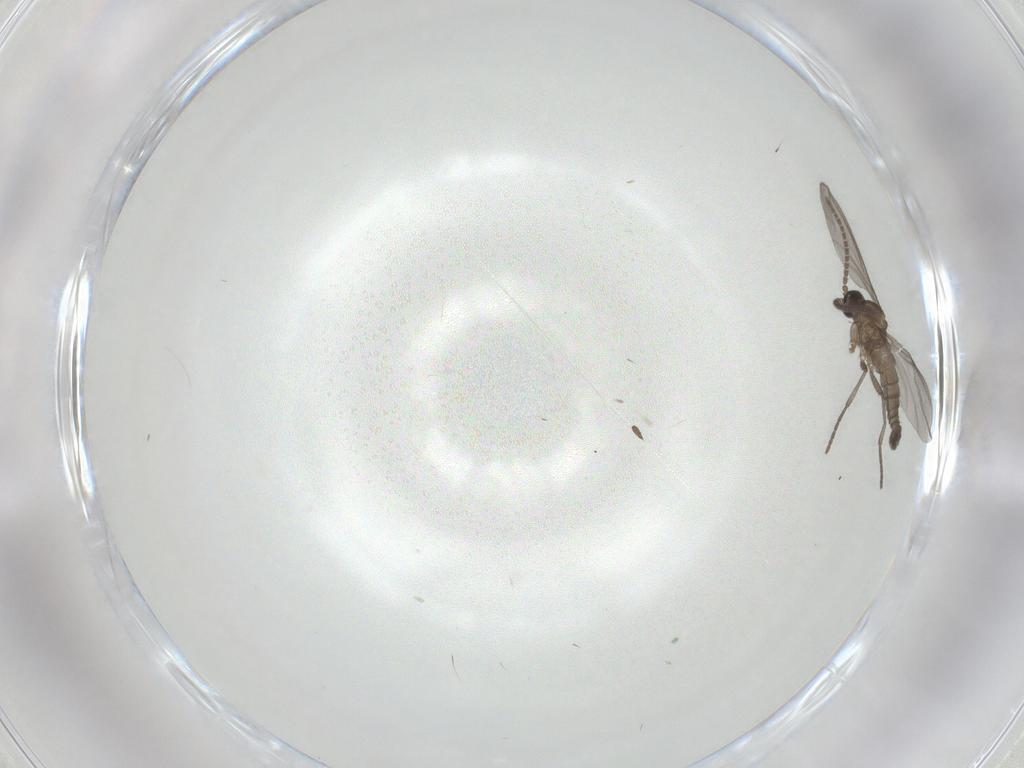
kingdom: Animalia
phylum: Arthropoda
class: Insecta
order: Diptera
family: Sciaridae
